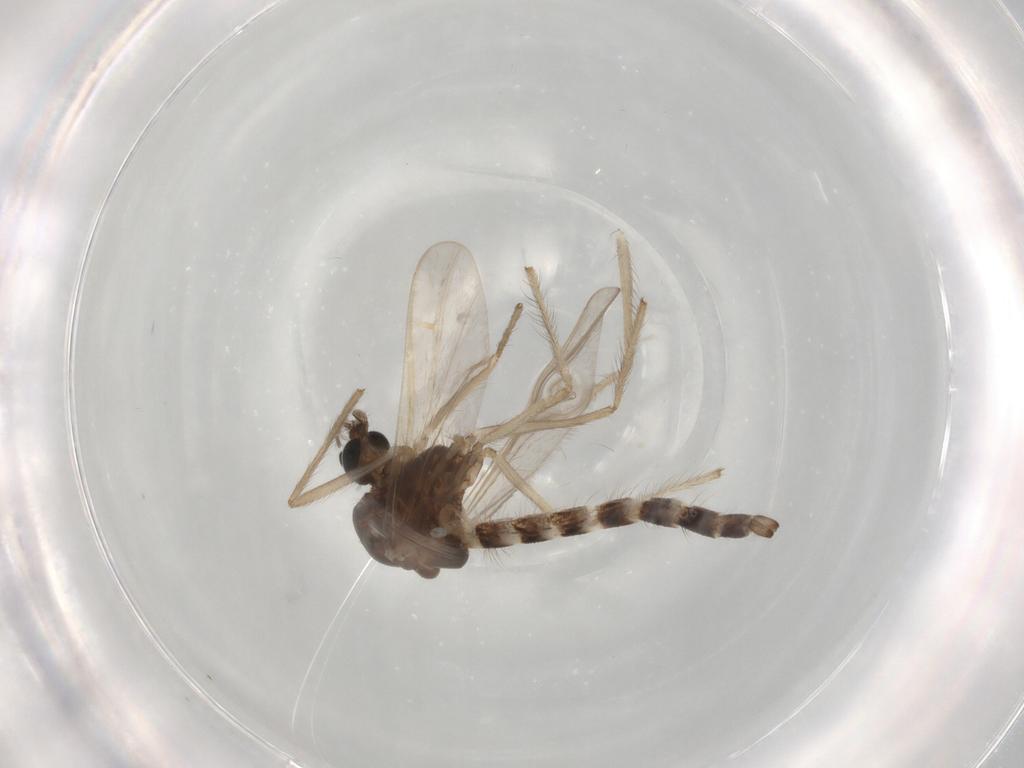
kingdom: Animalia
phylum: Arthropoda
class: Insecta
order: Diptera
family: Chironomidae
